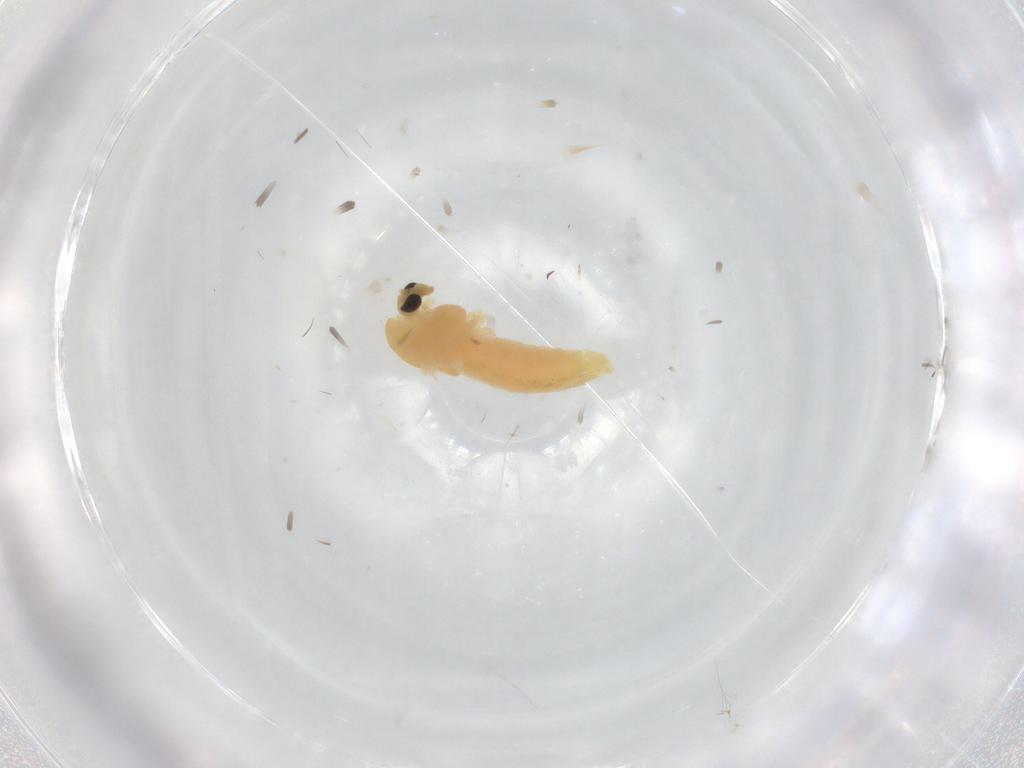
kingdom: Animalia
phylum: Arthropoda
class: Insecta
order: Diptera
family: Chironomidae
